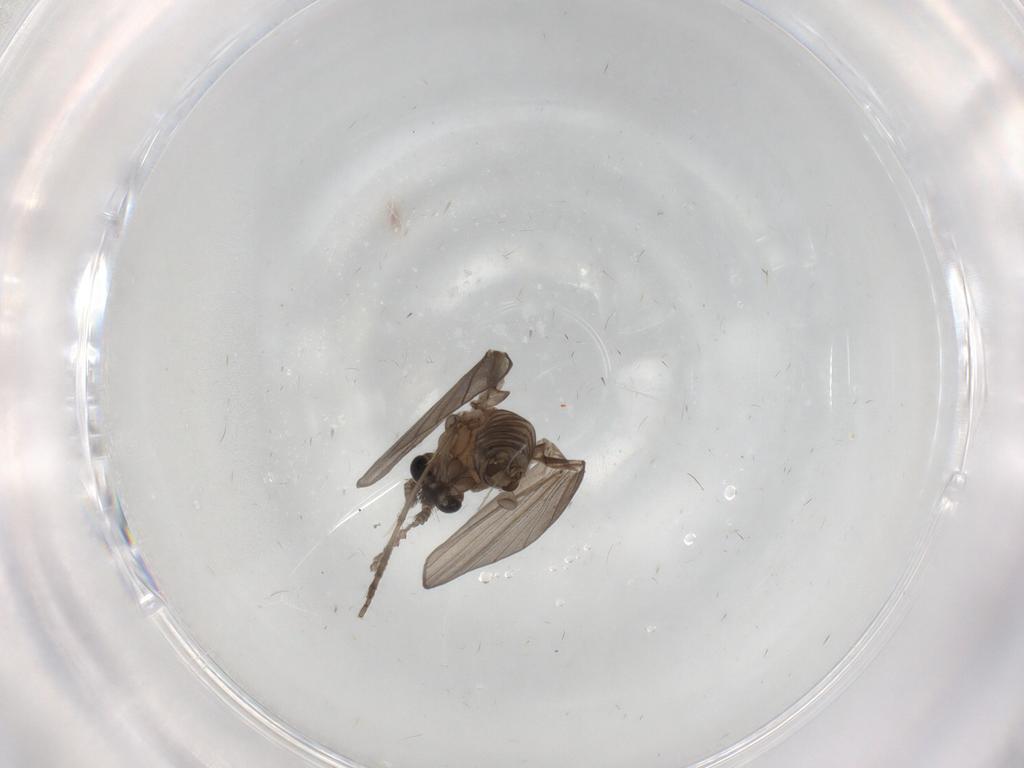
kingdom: Animalia
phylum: Arthropoda
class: Insecta
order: Diptera
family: Psychodidae
